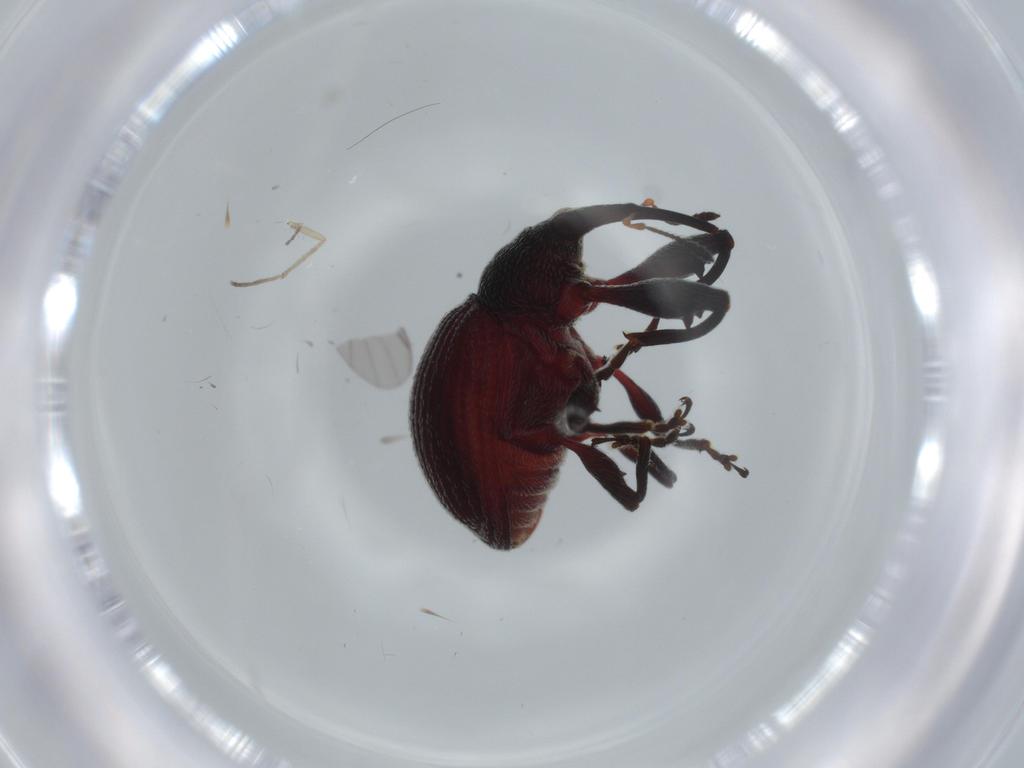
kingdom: Animalia
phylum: Arthropoda
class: Insecta
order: Coleoptera
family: Curculionidae
